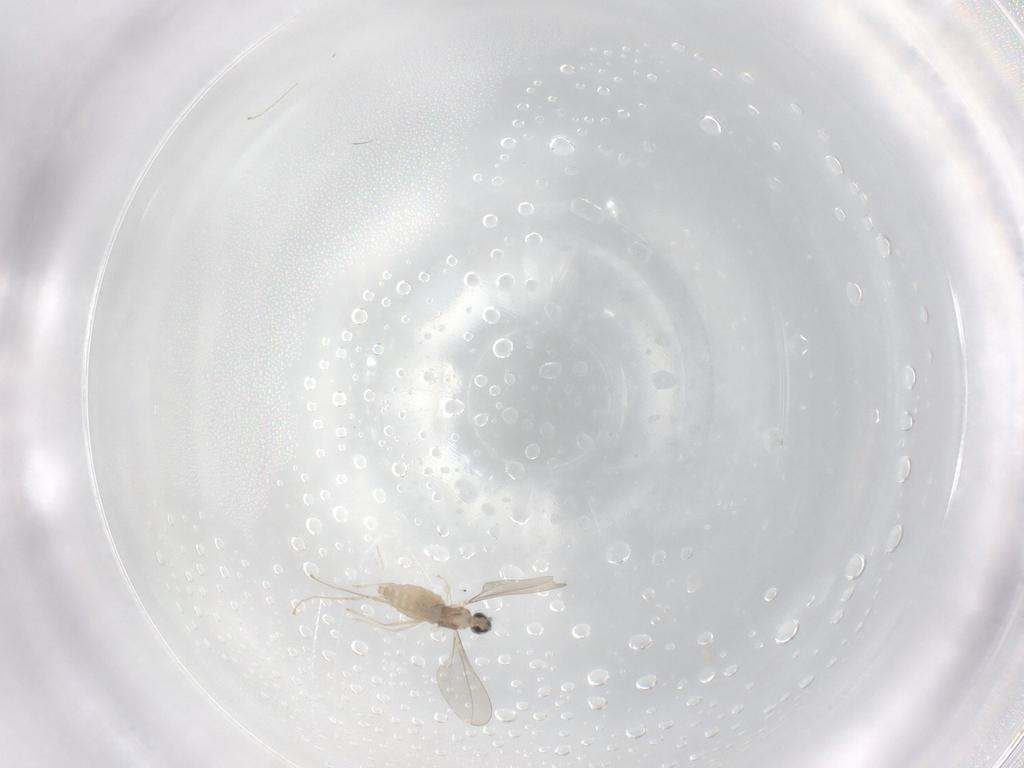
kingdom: Animalia
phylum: Arthropoda
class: Insecta
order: Diptera
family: Cecidomyiidae
